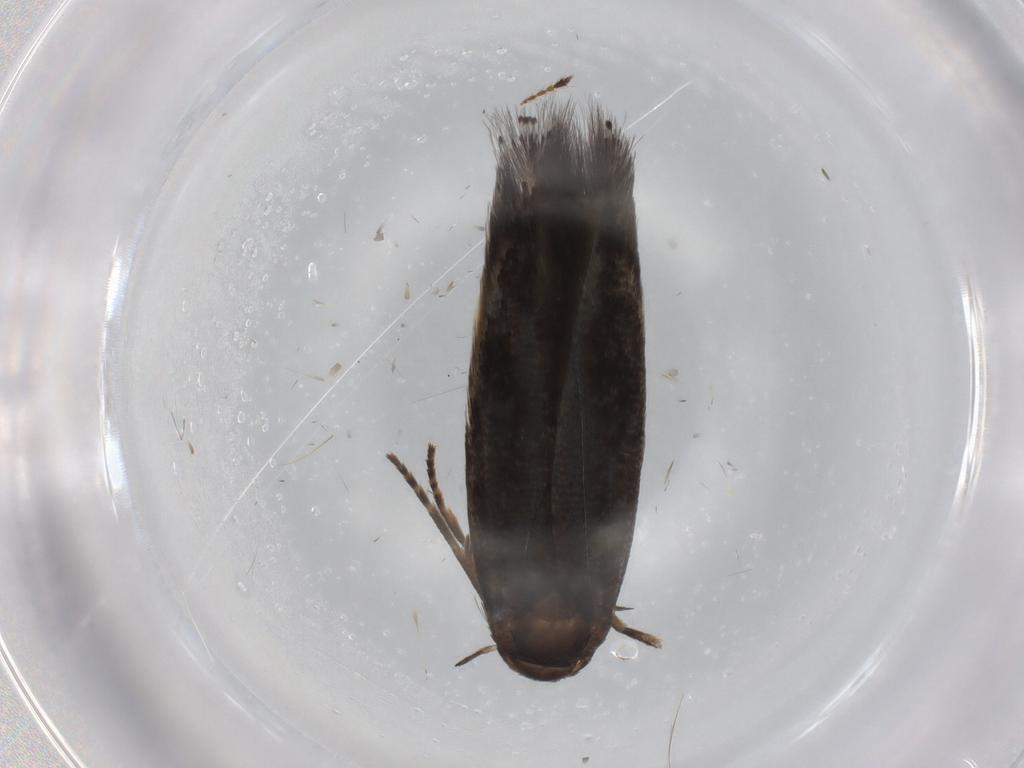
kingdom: Animalia
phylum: Arthropoda
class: Insecta
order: Lepidoptera
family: Elachistidae
